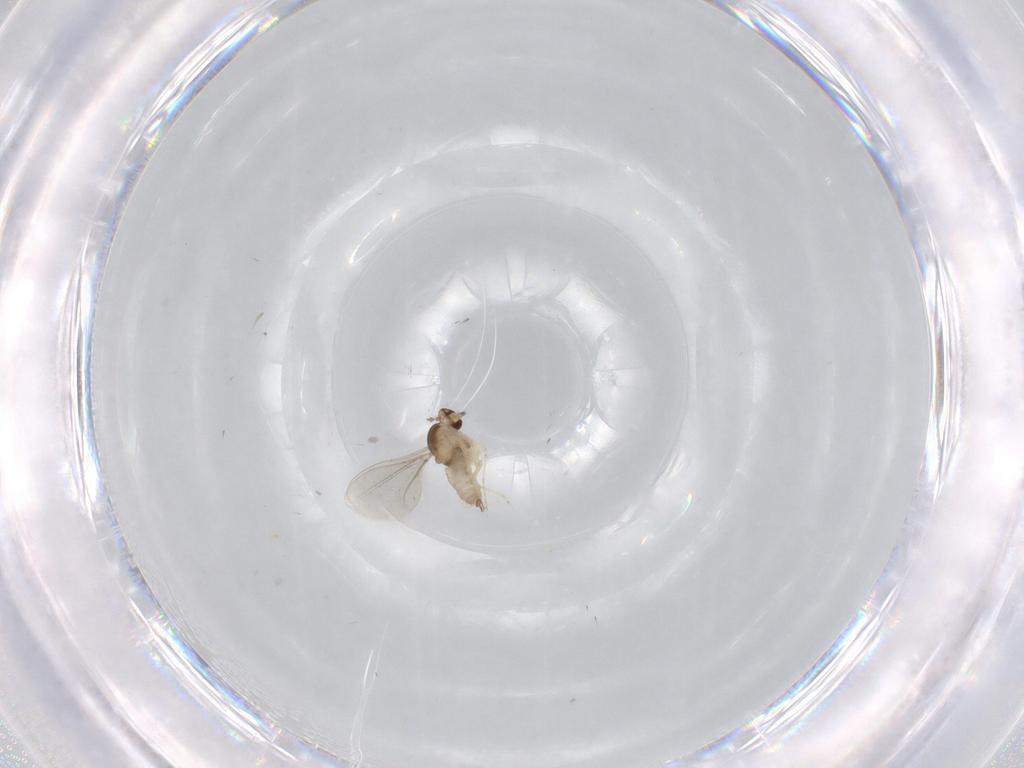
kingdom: Animalia
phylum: Arthropoda
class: Insecta
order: Diptera
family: Cecidomyiidae
